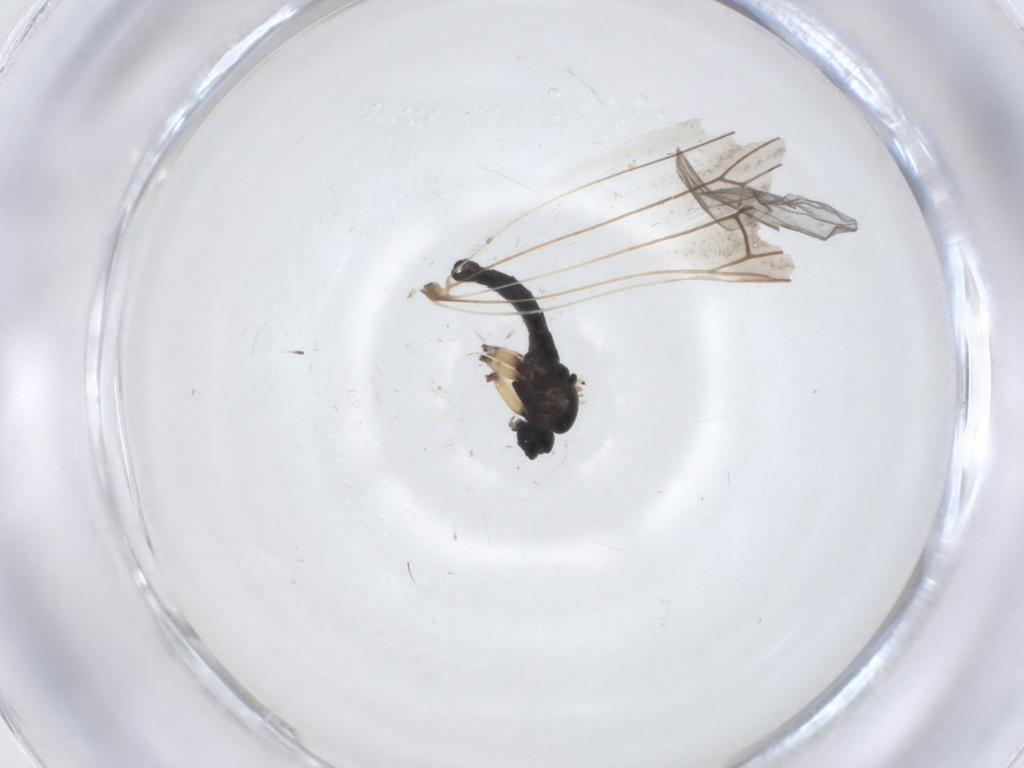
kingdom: Animalia
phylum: Arthropoda
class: Insecta
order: Diptera
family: Sciaridae
